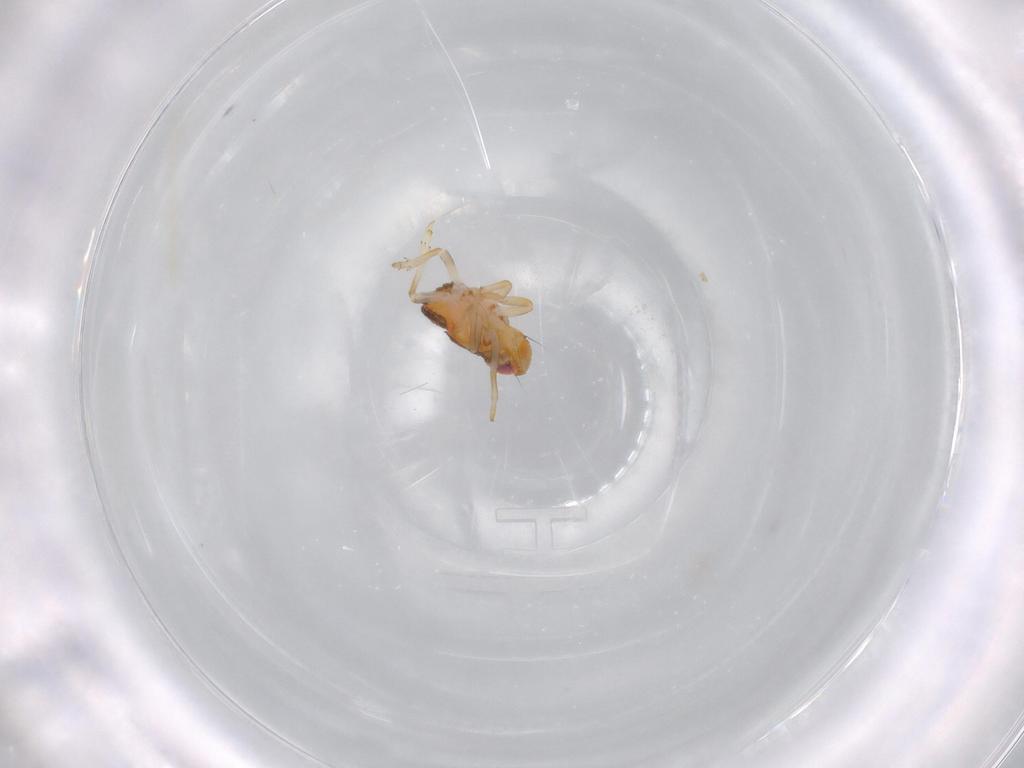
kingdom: Animalia
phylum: Arthropoda
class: Insecta
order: Hemiptera
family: Issidae
